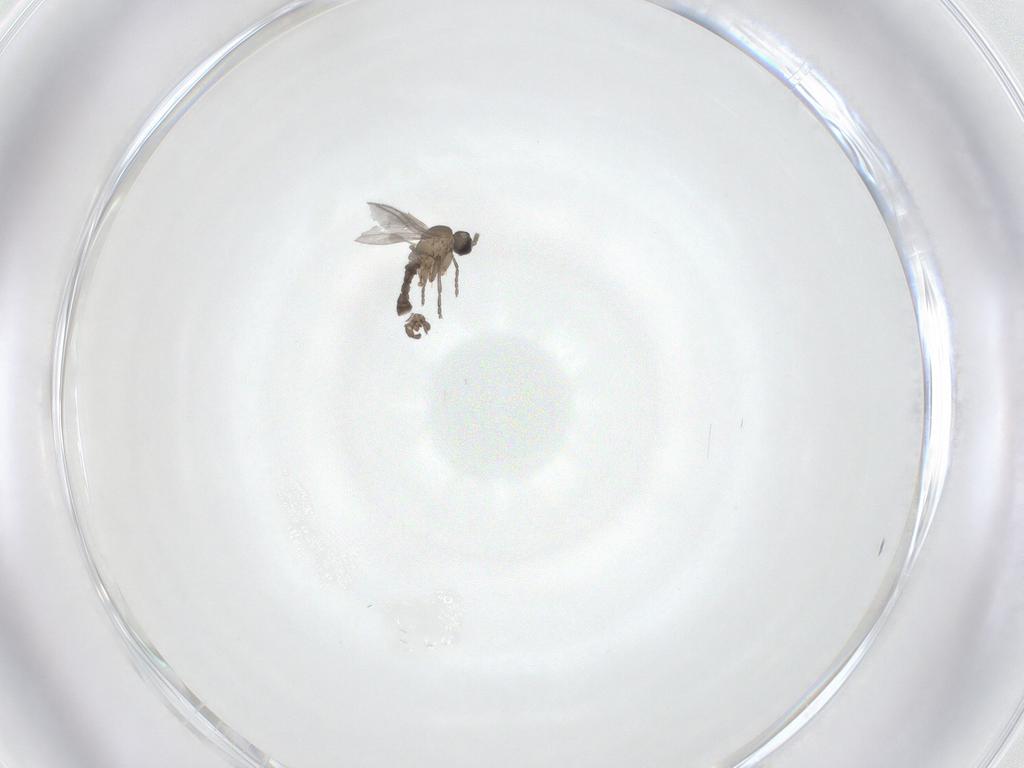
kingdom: Animalia
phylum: Arthropoda
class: Insecta
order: Diptera
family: Sciaridae
